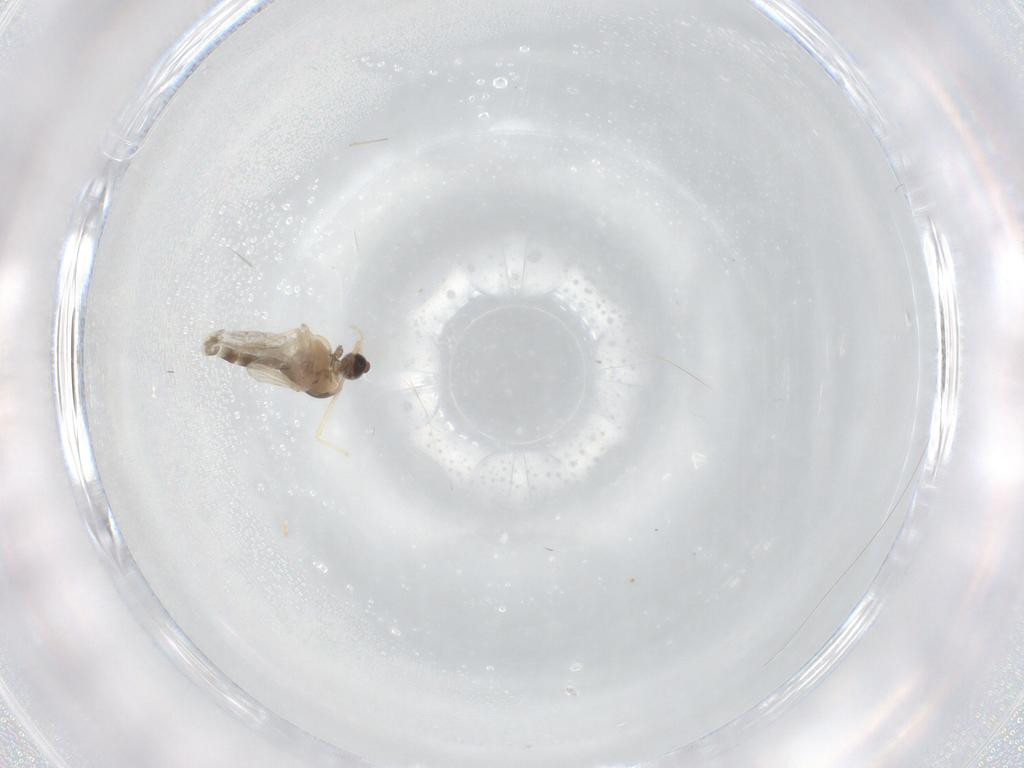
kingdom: Animalia
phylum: Arthropoda
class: Insecta
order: Diptera
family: Chironomidae
